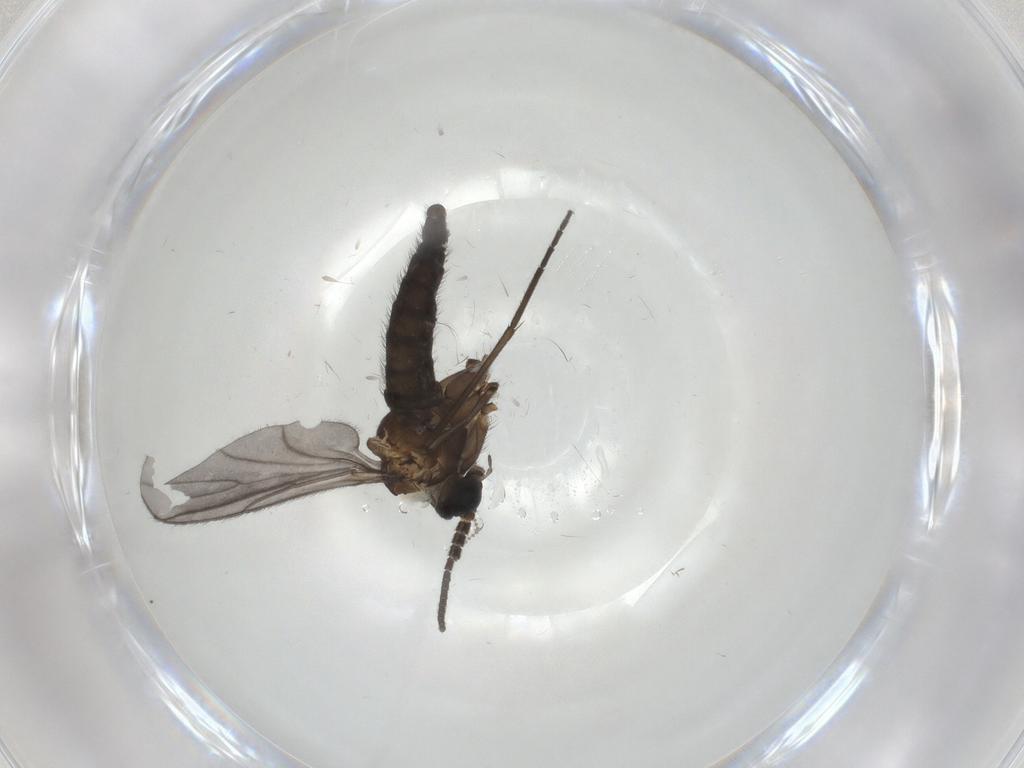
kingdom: Animalia
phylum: Arthropoda
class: Insecta
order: Diptera
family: Sciaridae
